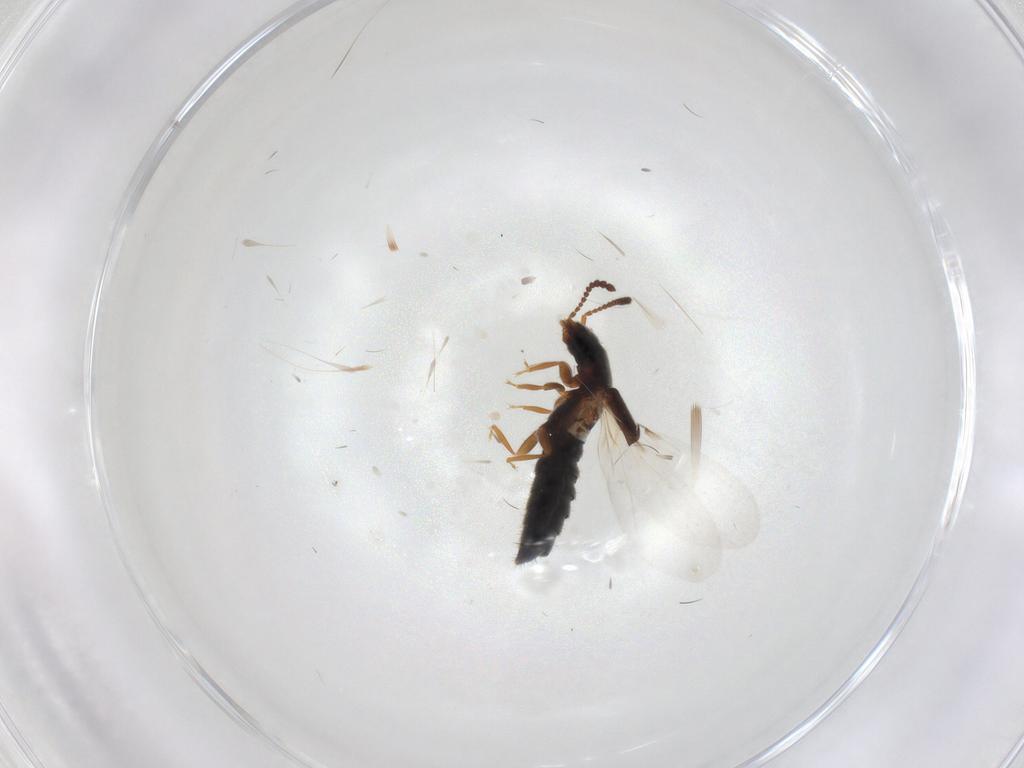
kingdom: Animalia
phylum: Arthropoda
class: Insecta
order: Coleoptera
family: Staphylinidae
